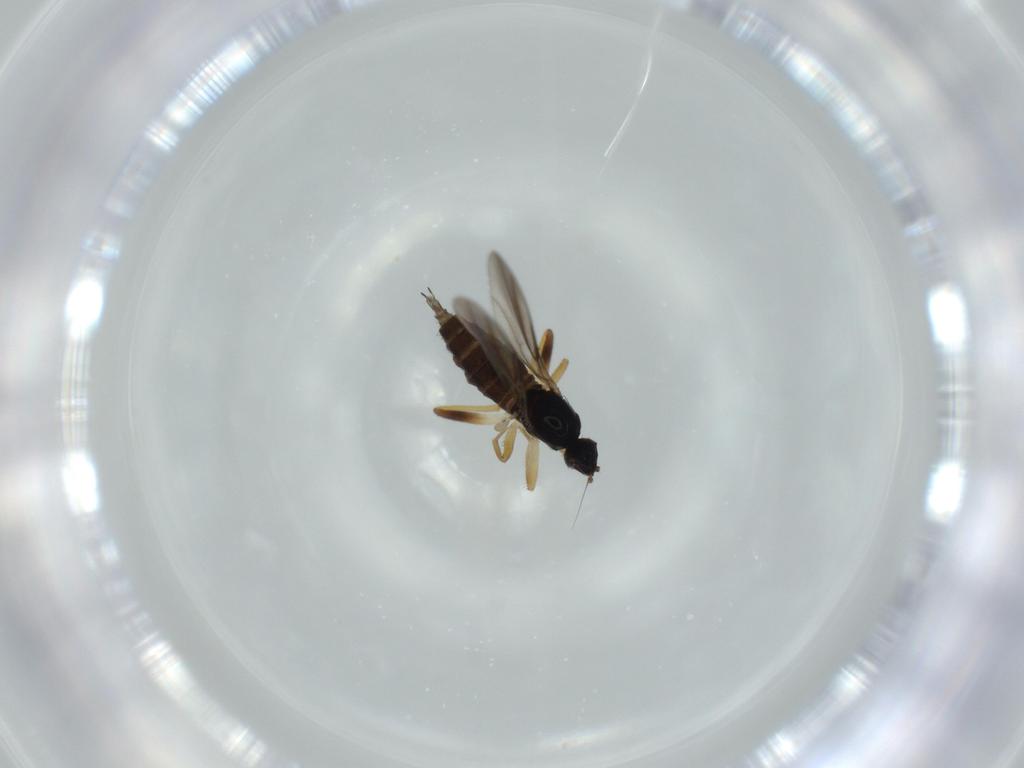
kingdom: Animalia
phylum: Arthropoda
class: Insecta
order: Diptera
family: Hybotidae
